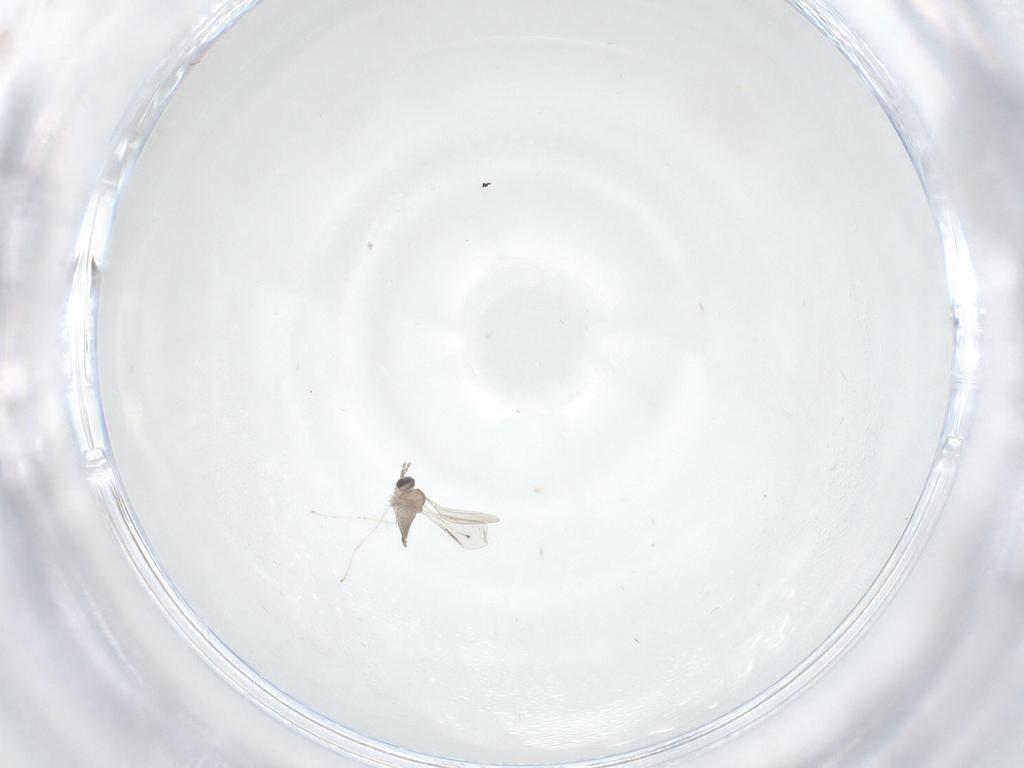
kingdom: Animalia
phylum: Arthropoda
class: Insecta
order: Diptera
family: Cecidomyiidae
